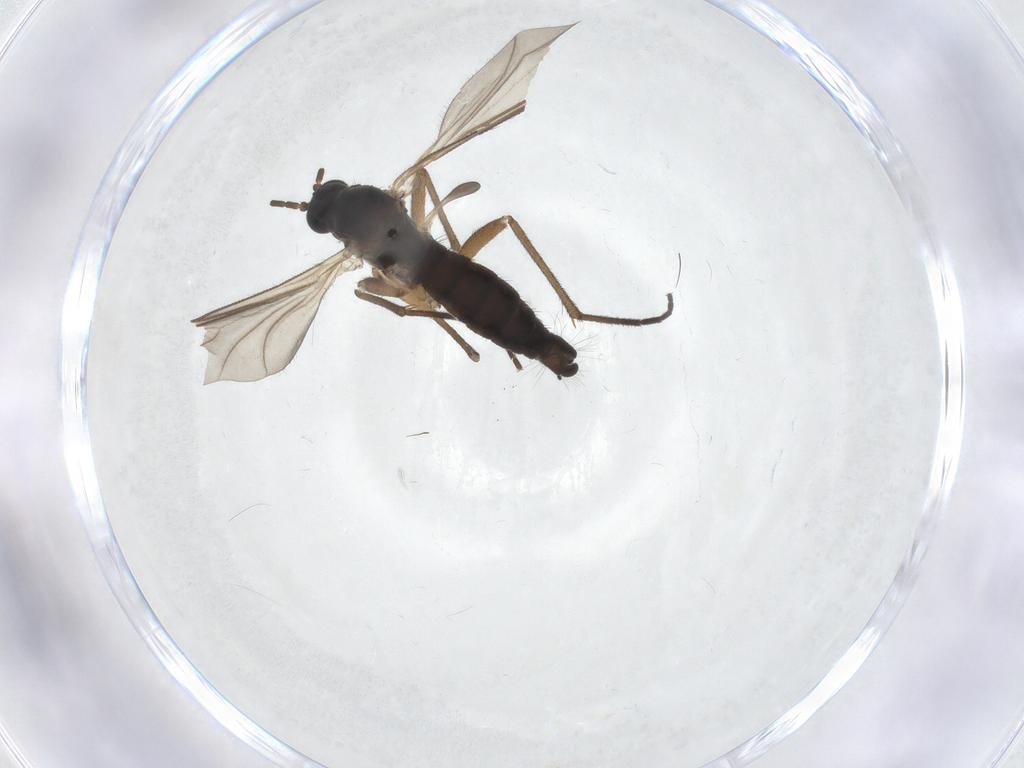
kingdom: Animalia
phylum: Arthropoda
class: Insecta
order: Diptera
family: Sciaridae
